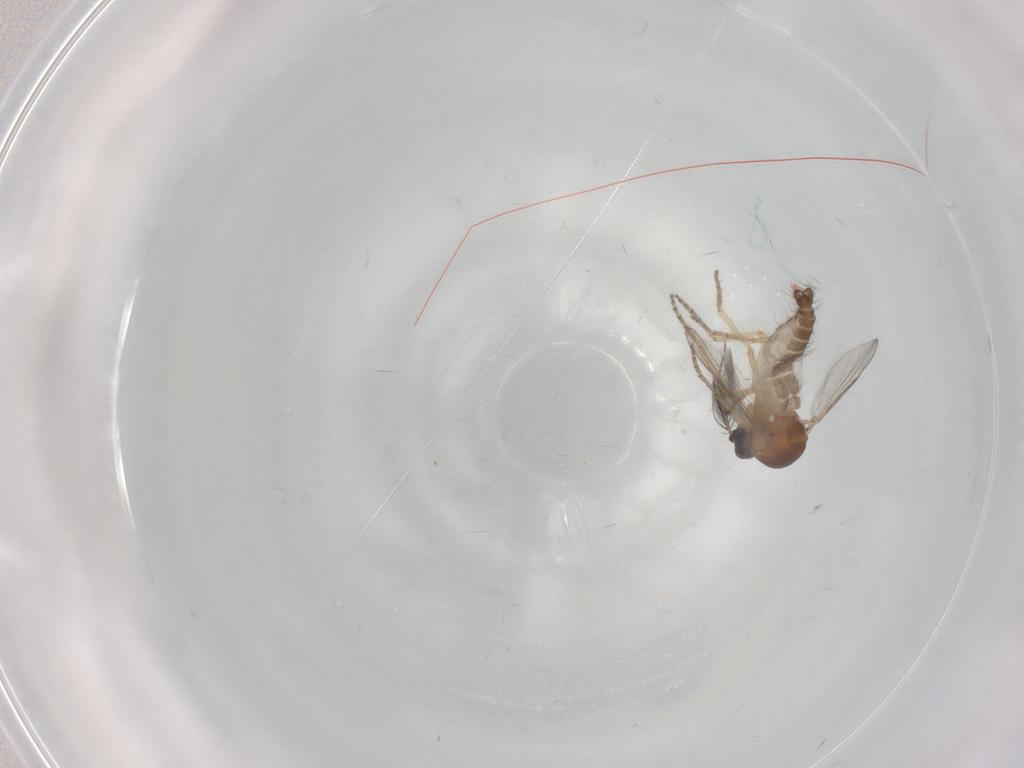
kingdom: Animalia
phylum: Arthropoda
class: Insecta
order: Diptera
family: Ceratopogonidae
